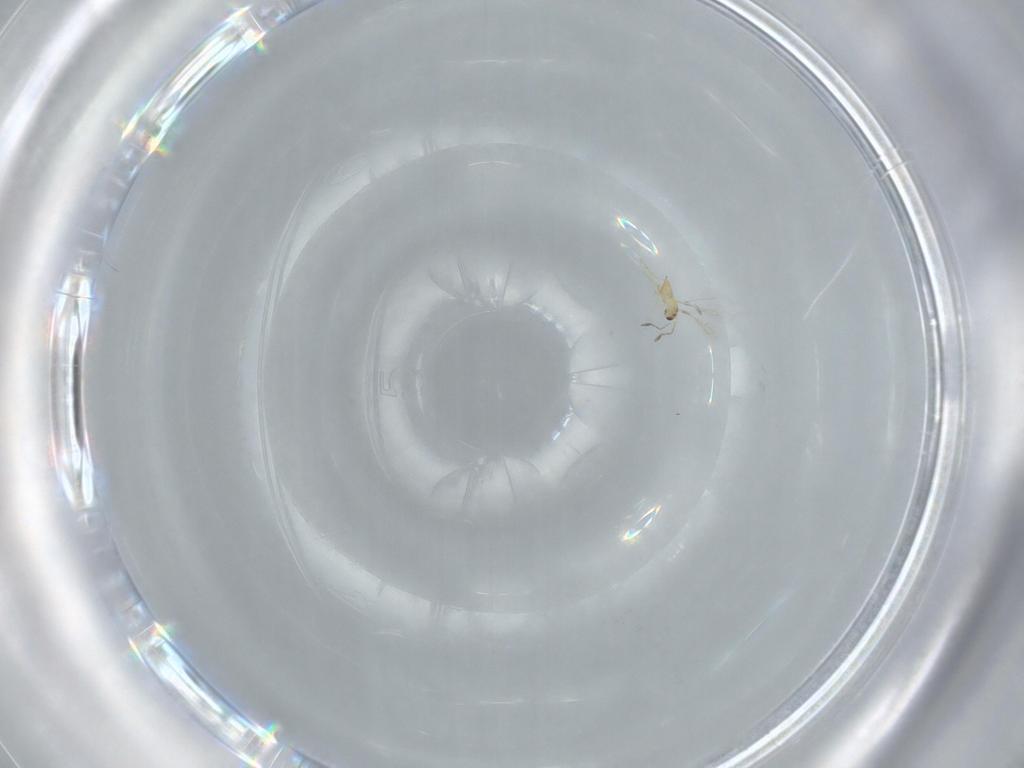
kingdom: Animalia
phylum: Arthropoda
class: Insecta
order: Hymenoptera
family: Mymaridae
